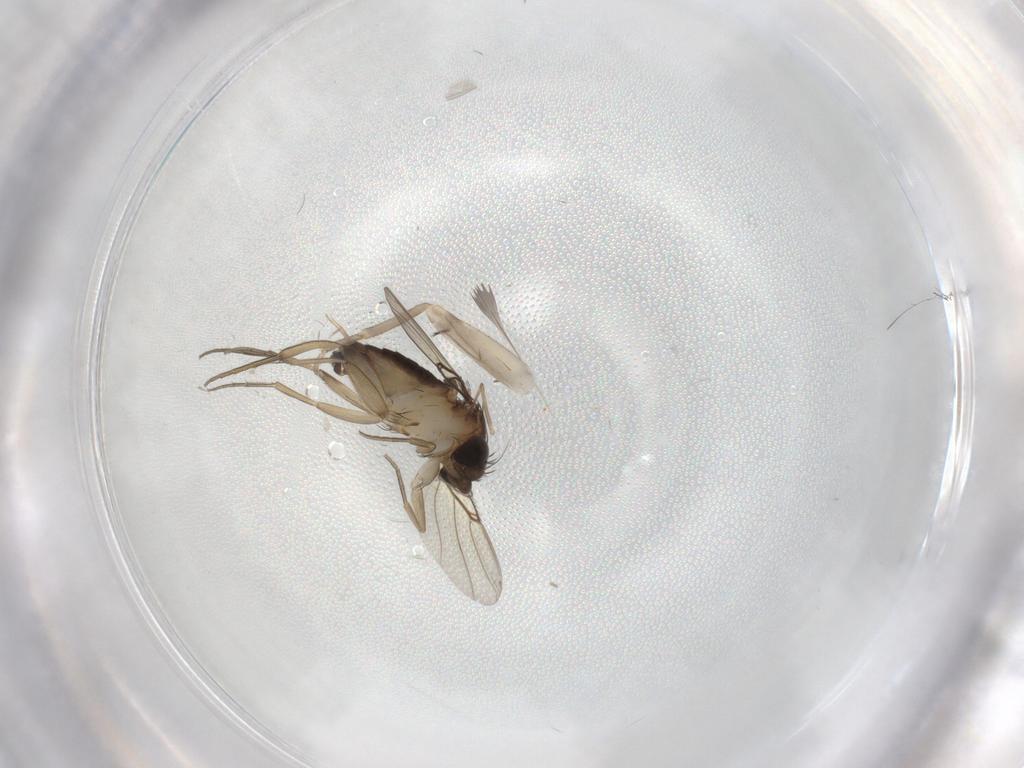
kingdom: Animalia
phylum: Arthropoda
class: Insecta
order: Diptera
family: Phoridae
